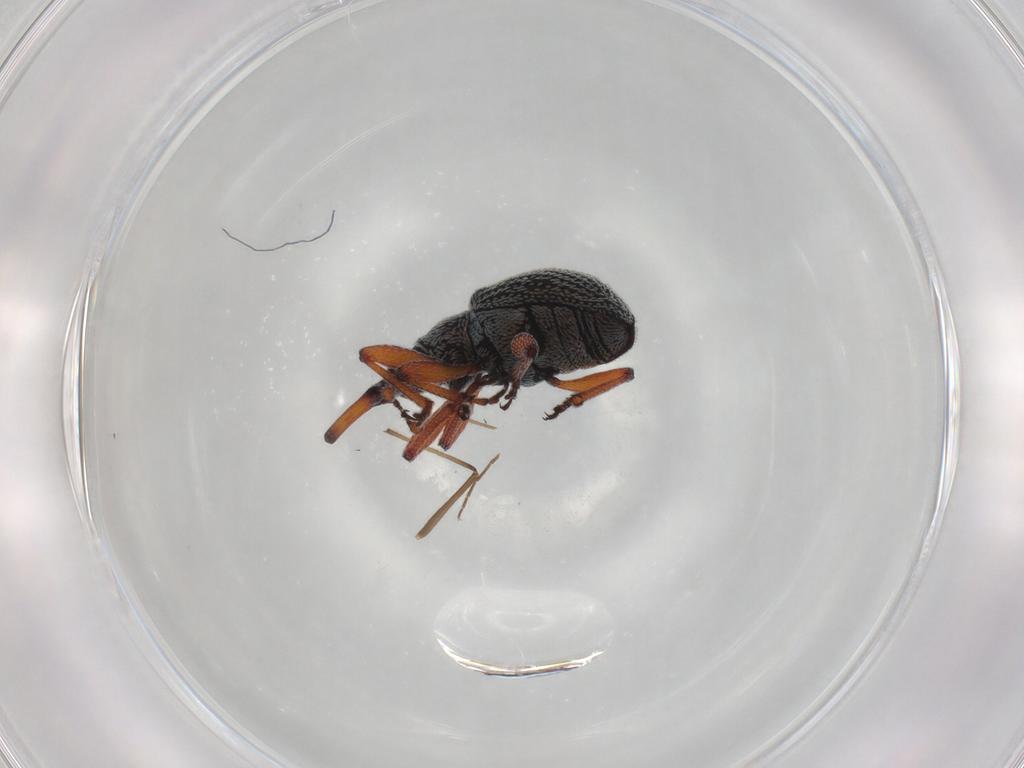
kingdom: Animalia
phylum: Arthropoda
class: Insecta
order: Coleoptera
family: Brentidae
